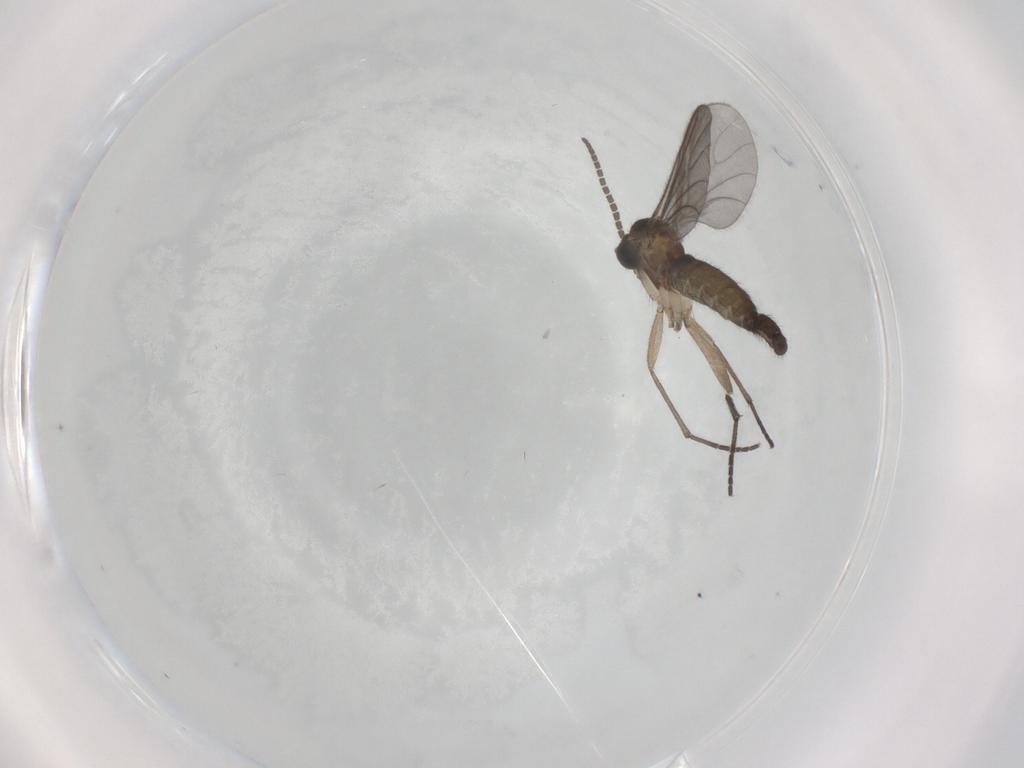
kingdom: Animalia
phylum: Arthropoda
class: Insecta
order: Diptera
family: Sciaridae
